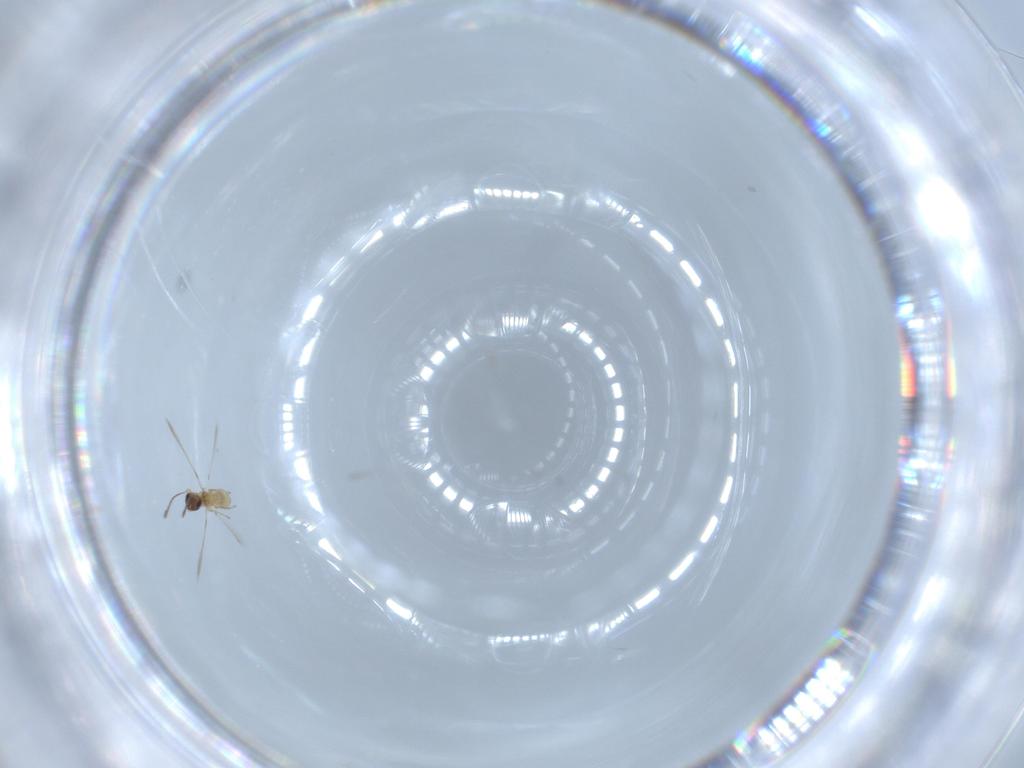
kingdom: Animalia
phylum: Arthropoda
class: Insecta
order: Hymenoptera
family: Mymaridae
